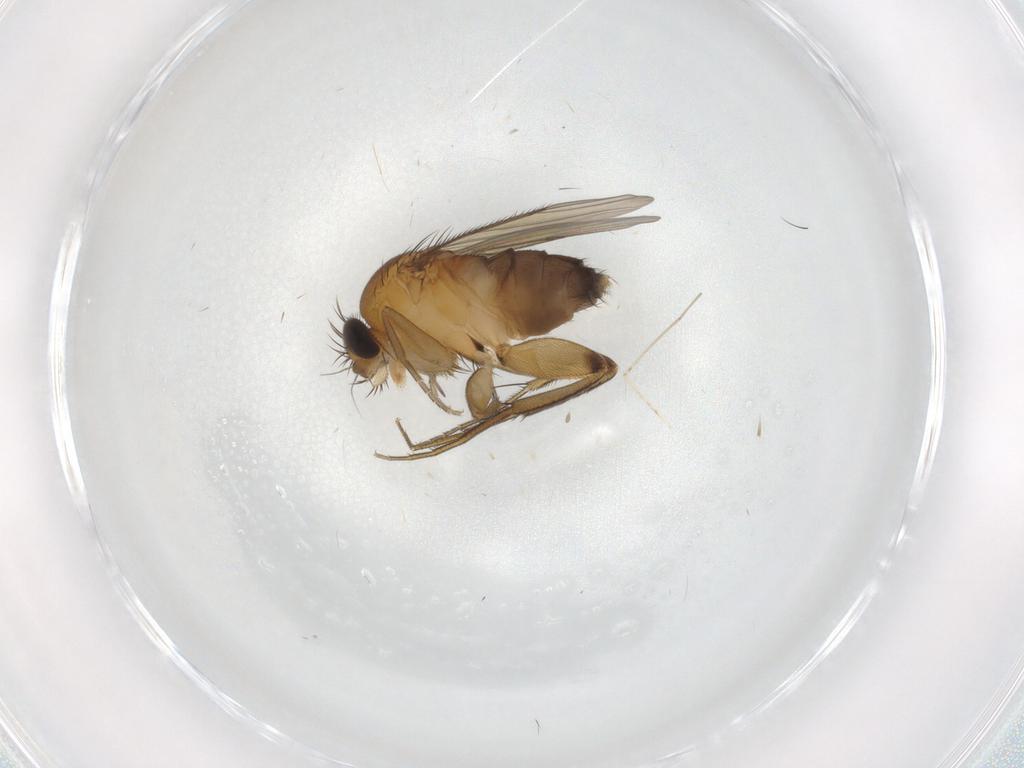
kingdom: Animalia
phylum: Arthropoda
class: Insecta
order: Diptera
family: Phoridae
